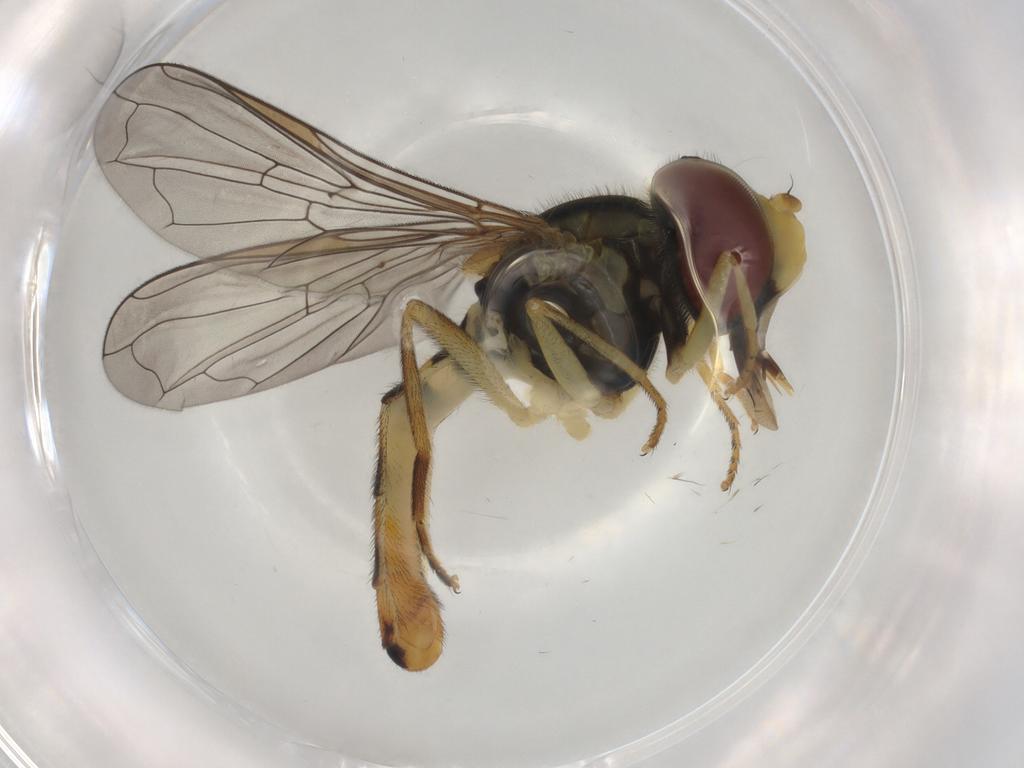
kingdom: Animalia
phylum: Arthropoda
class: Insecta
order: Diptera
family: Syrphidae
